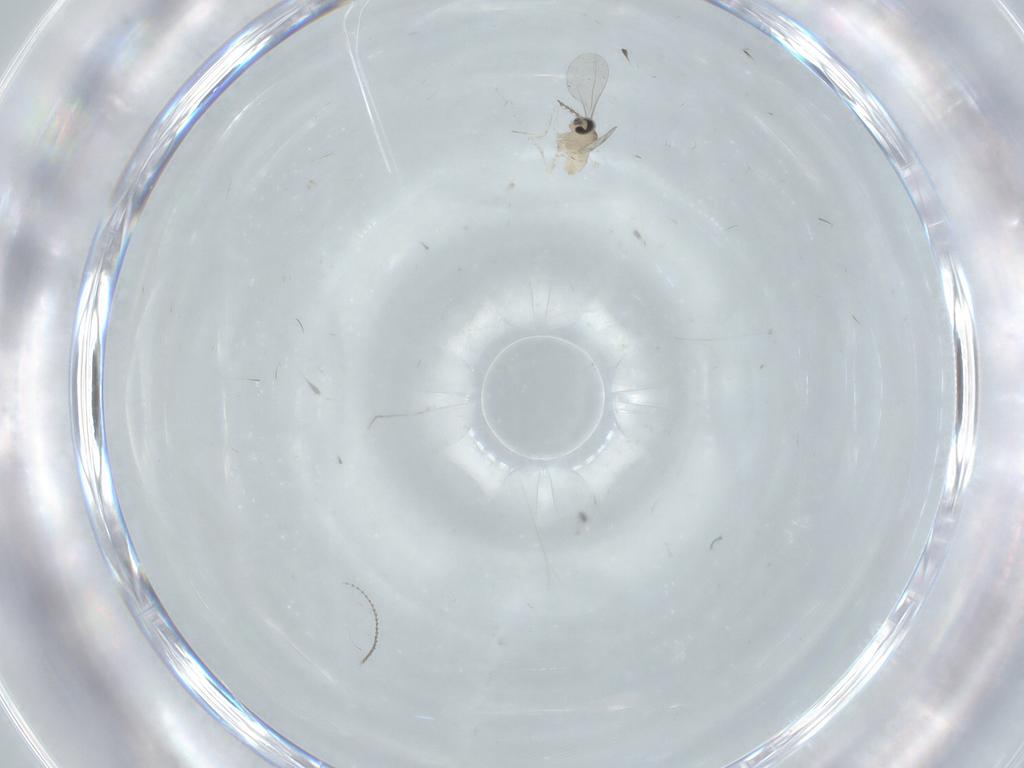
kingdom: Animalia
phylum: Arthropoda
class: Insecta
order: Diptera
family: Cecidomyiidae
